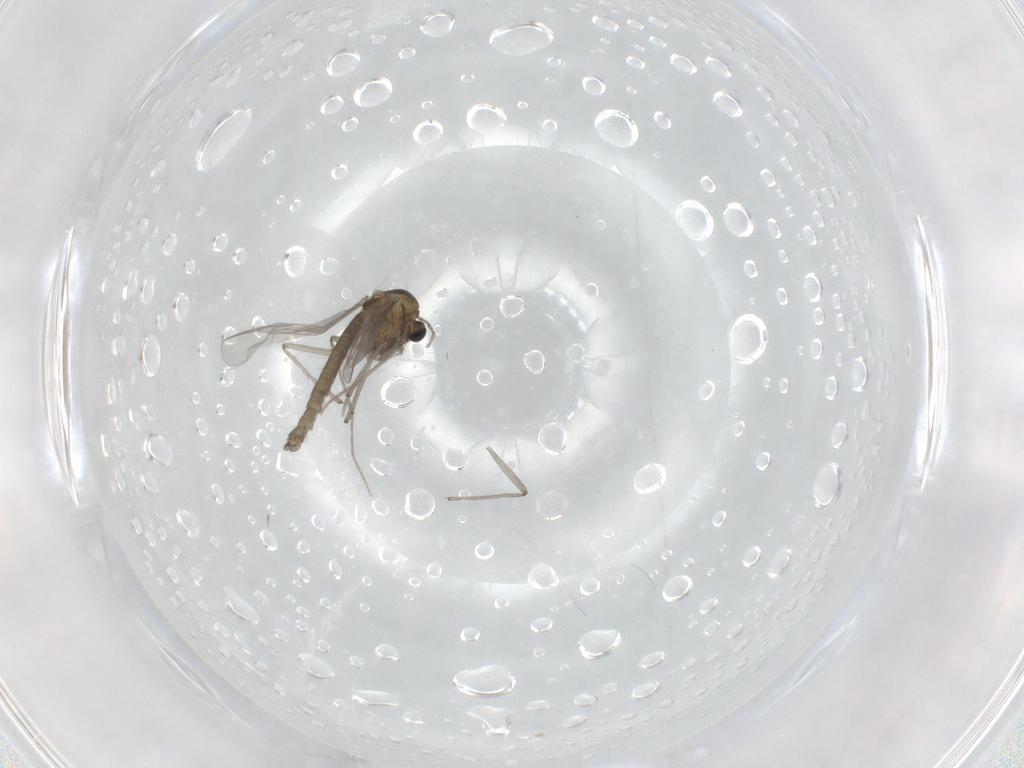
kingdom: Animalia
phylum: Arthropoda
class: Insecta
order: Diptera
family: Chironomidae
